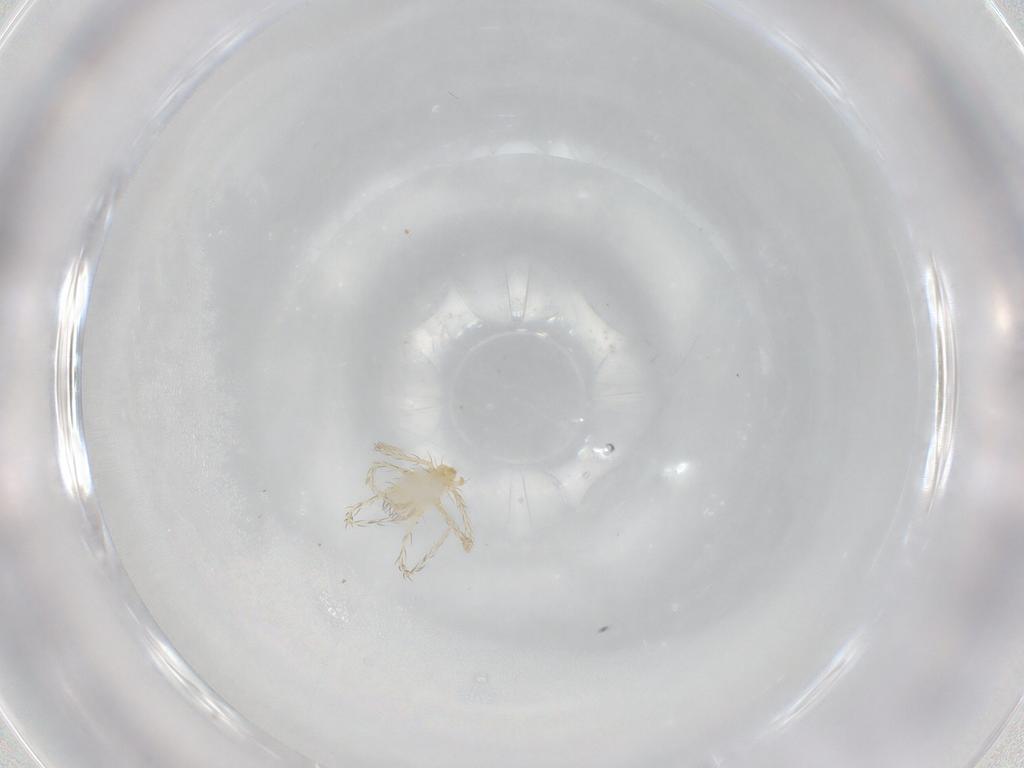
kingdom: Animalia
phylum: Arthropoda
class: Arachnida
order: Trombidiformes
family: Erythraeidae
